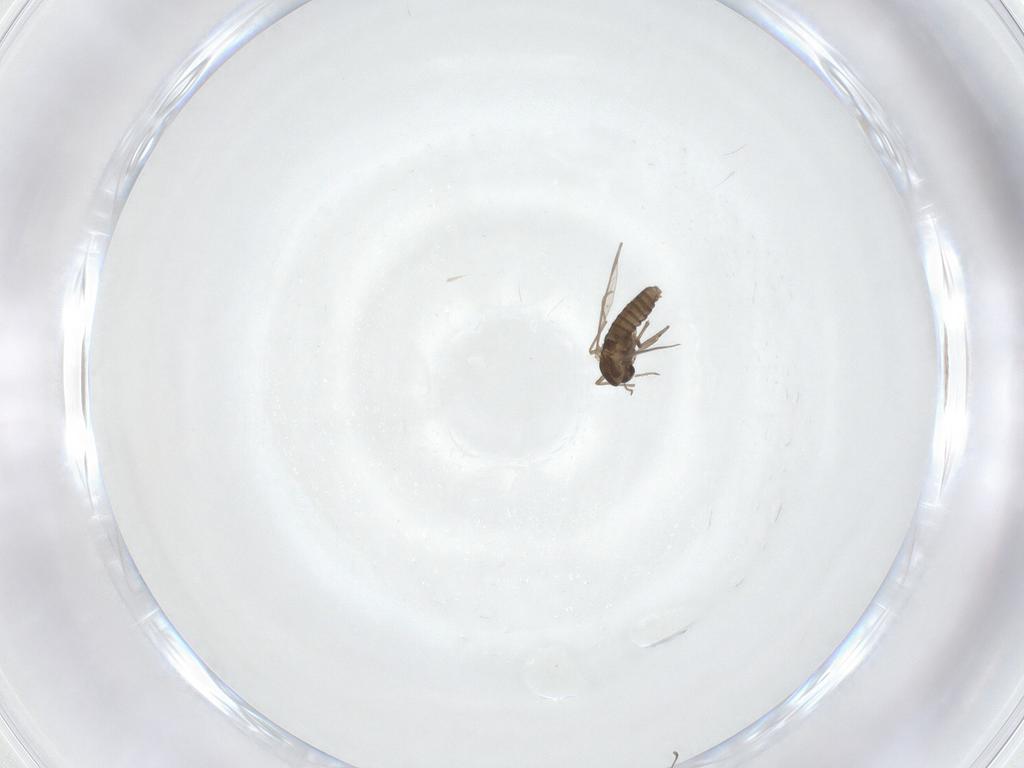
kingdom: Animalia
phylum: Arthropoda
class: Insecta
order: Diptera
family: Chironomidae
